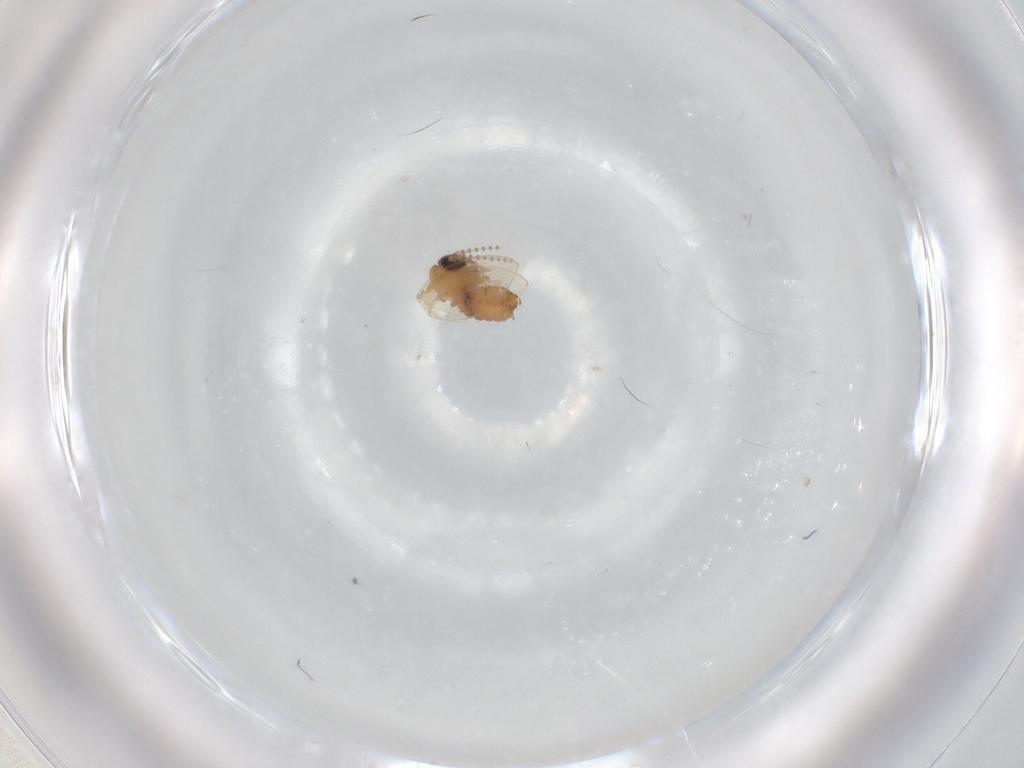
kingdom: Animalia
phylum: Arthropoda
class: Insecta
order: Diptera
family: Psychodidae
